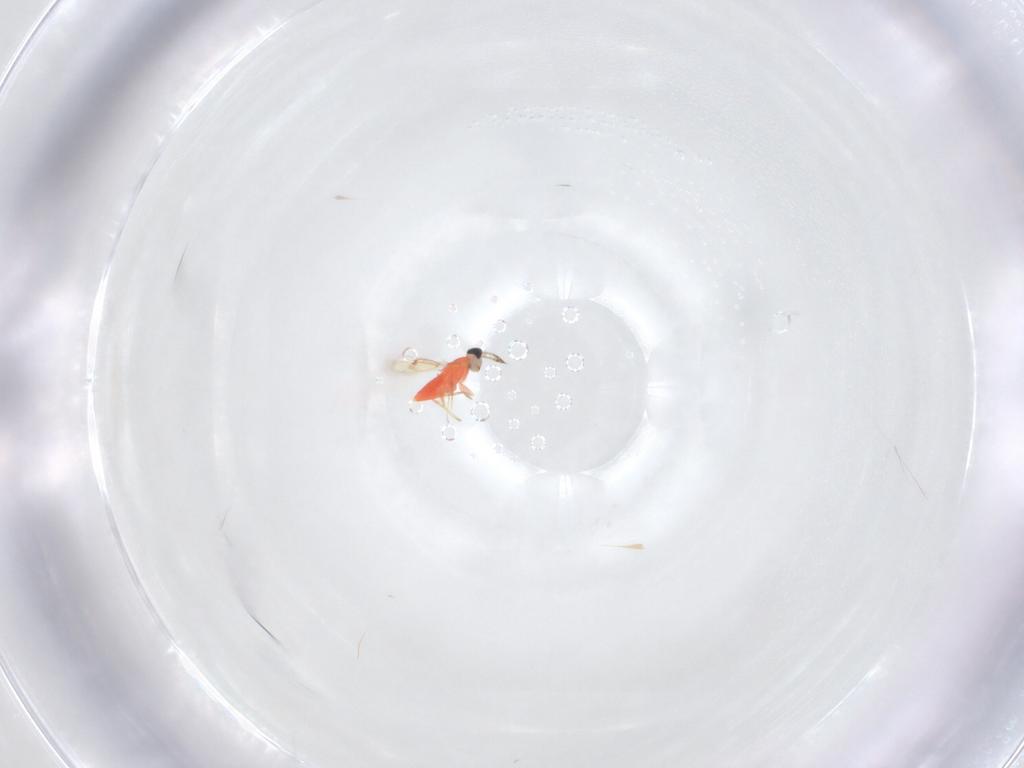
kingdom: Animalia
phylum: Arthropoda
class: Insecta
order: Hymenoptera
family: Trichogrammatidae
